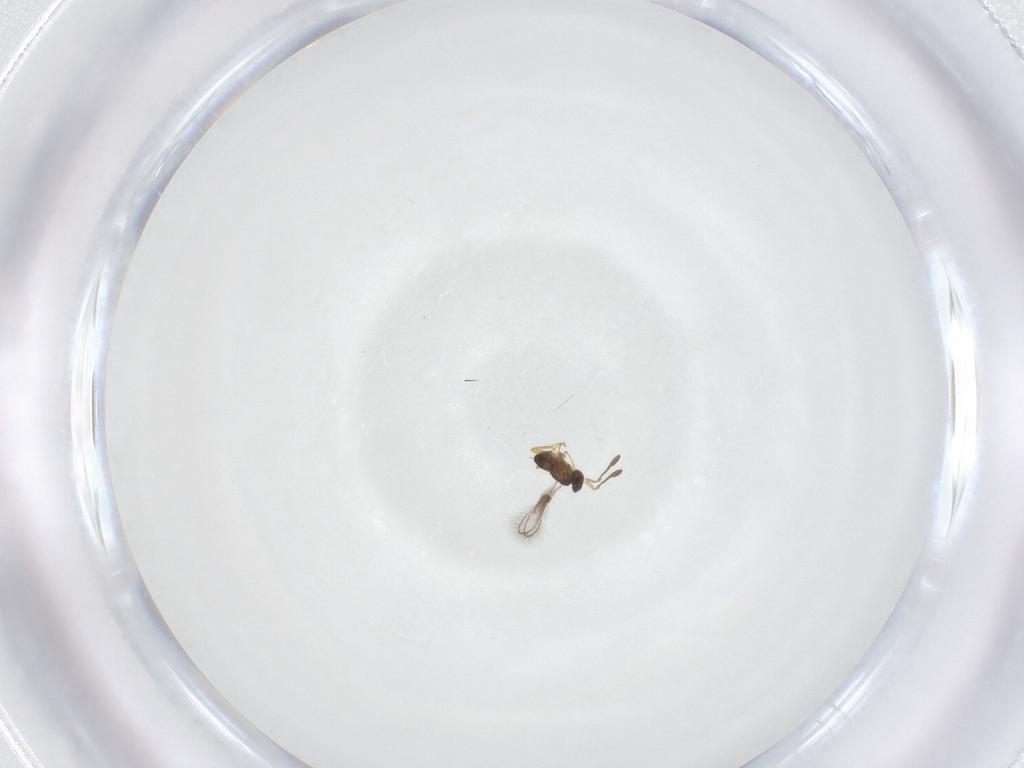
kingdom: Animalia
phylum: Arthropoda
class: Insecta
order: Hymenoptera
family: Mymaridae
